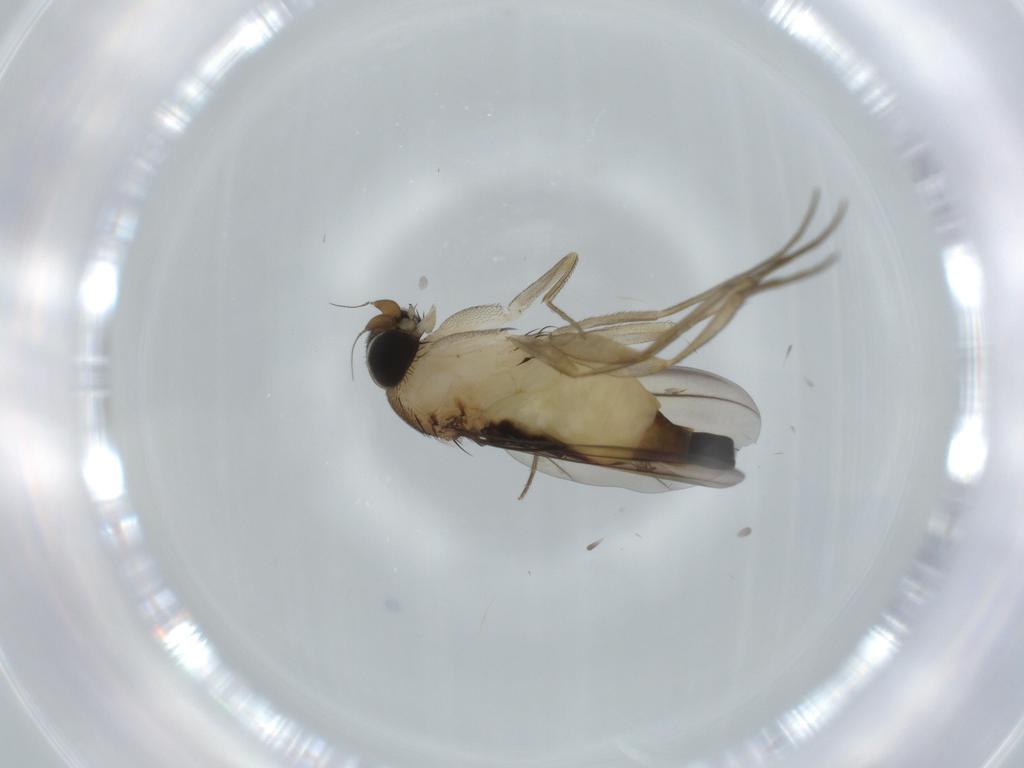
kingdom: Animalia
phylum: Arthropoda
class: Insecta
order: Diptera
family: Phoridae
